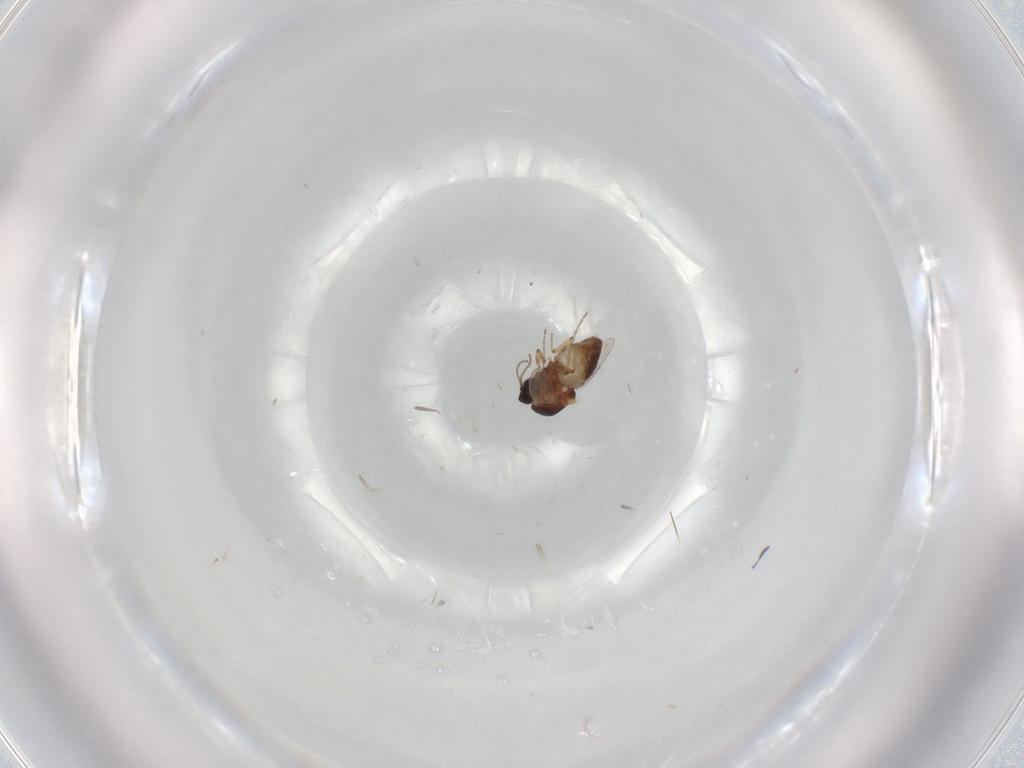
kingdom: Animalia
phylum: Arthropoda
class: Insecta
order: Diptera
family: Ceratopogonidae
